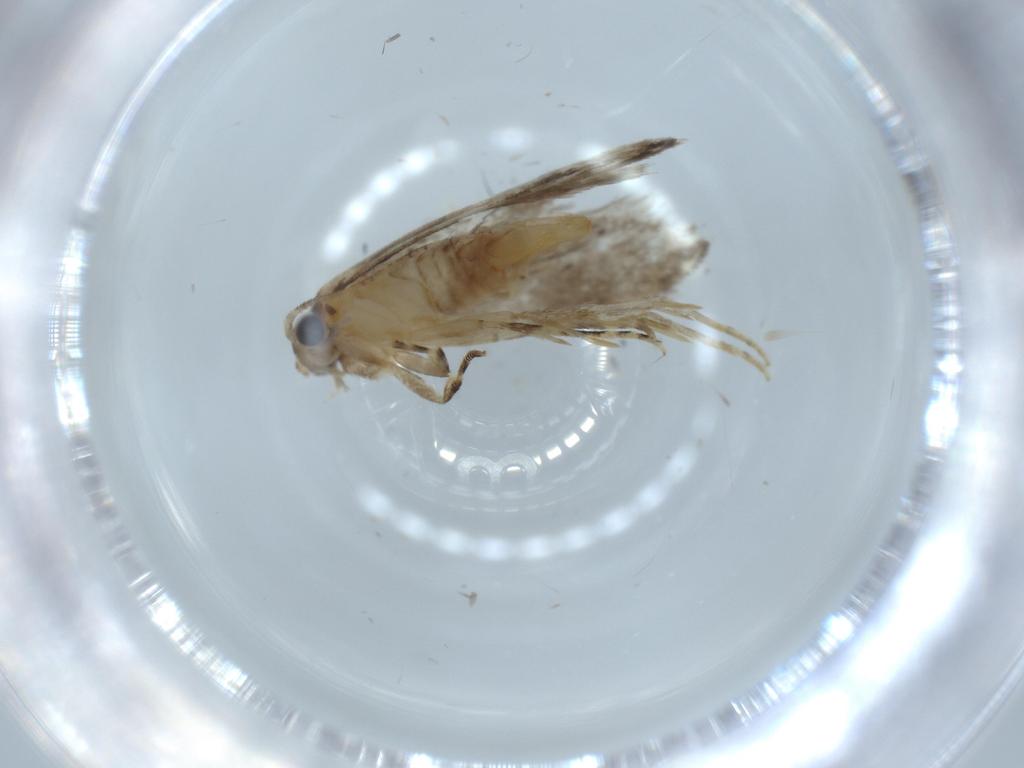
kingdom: Animalia
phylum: Arthropoda
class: Insecta
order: Lepidoptera
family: Tineidae
